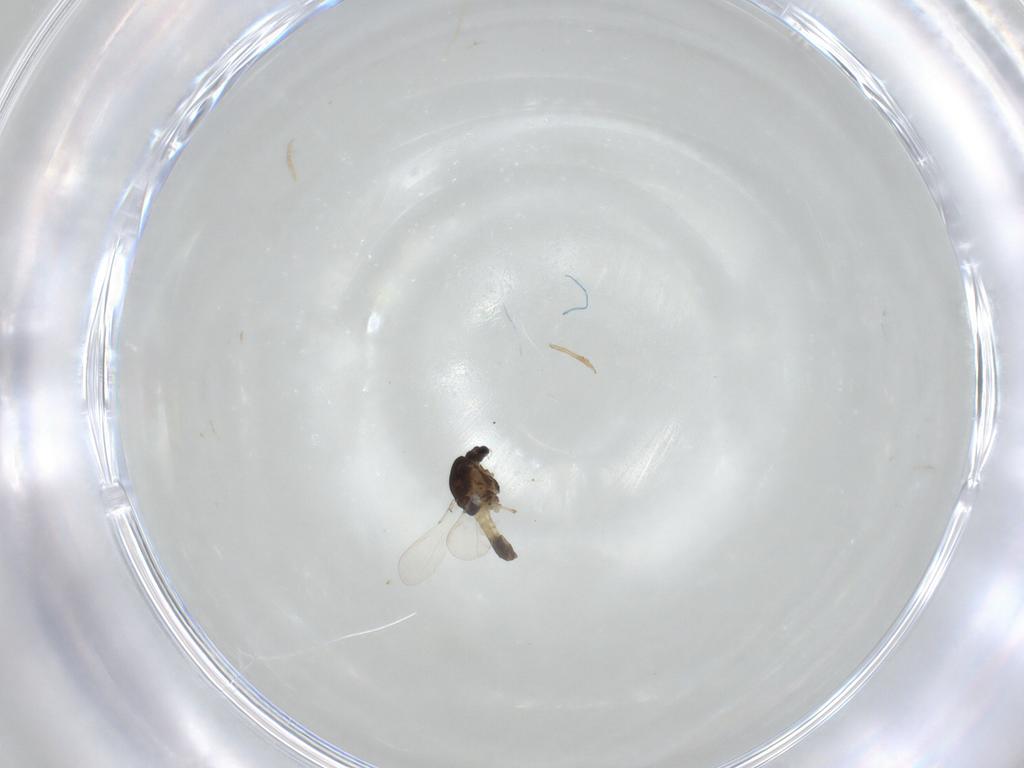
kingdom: Animalia
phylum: Arthropoda
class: Insecta
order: Diptera
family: Chironomidae
